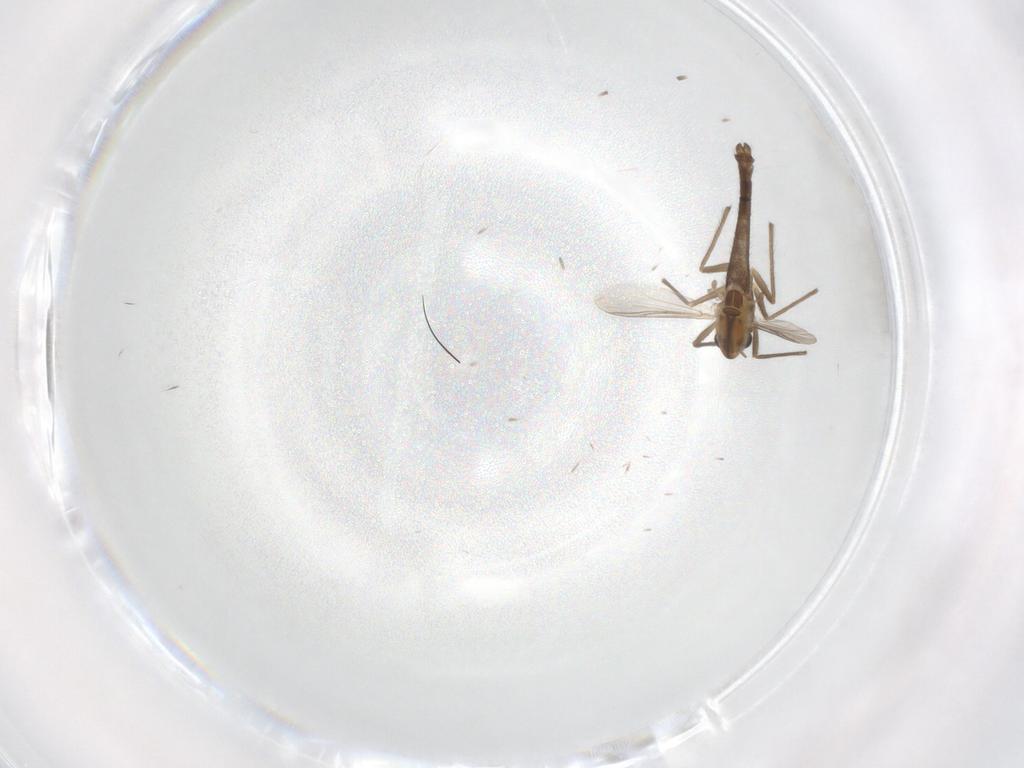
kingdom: Animalia
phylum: Arthropoda
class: Insecta
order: Diptera
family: Chironomidae
